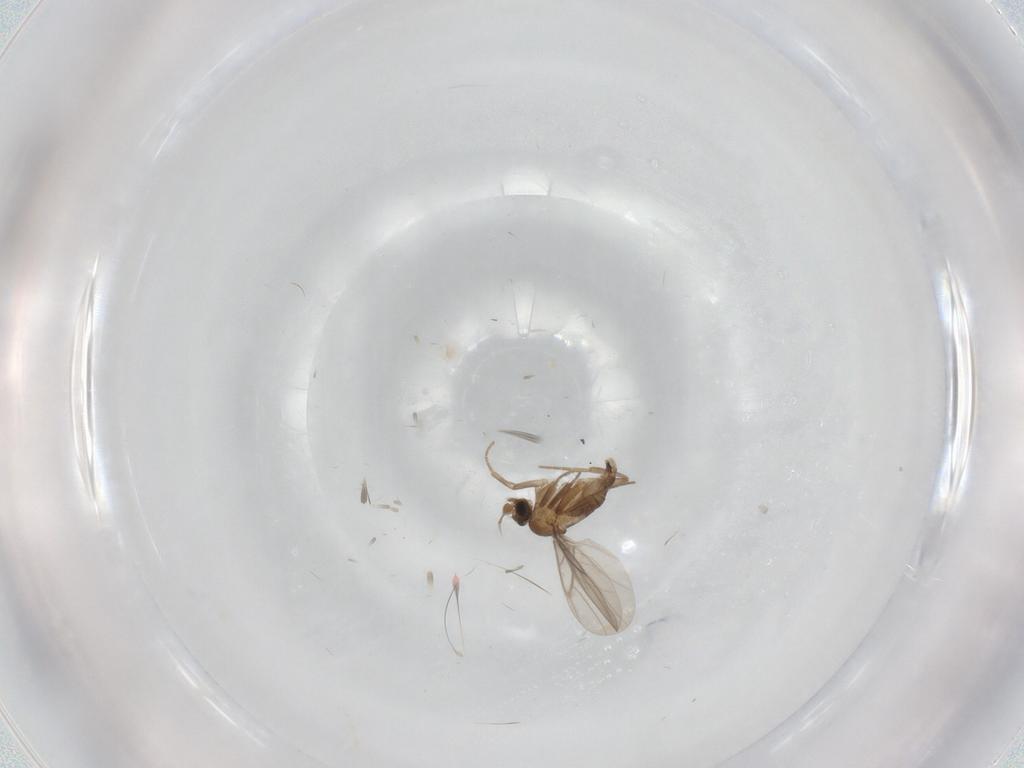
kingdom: Animalia
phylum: Arthropoda
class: Insecta
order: Diptera
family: Culicidae
